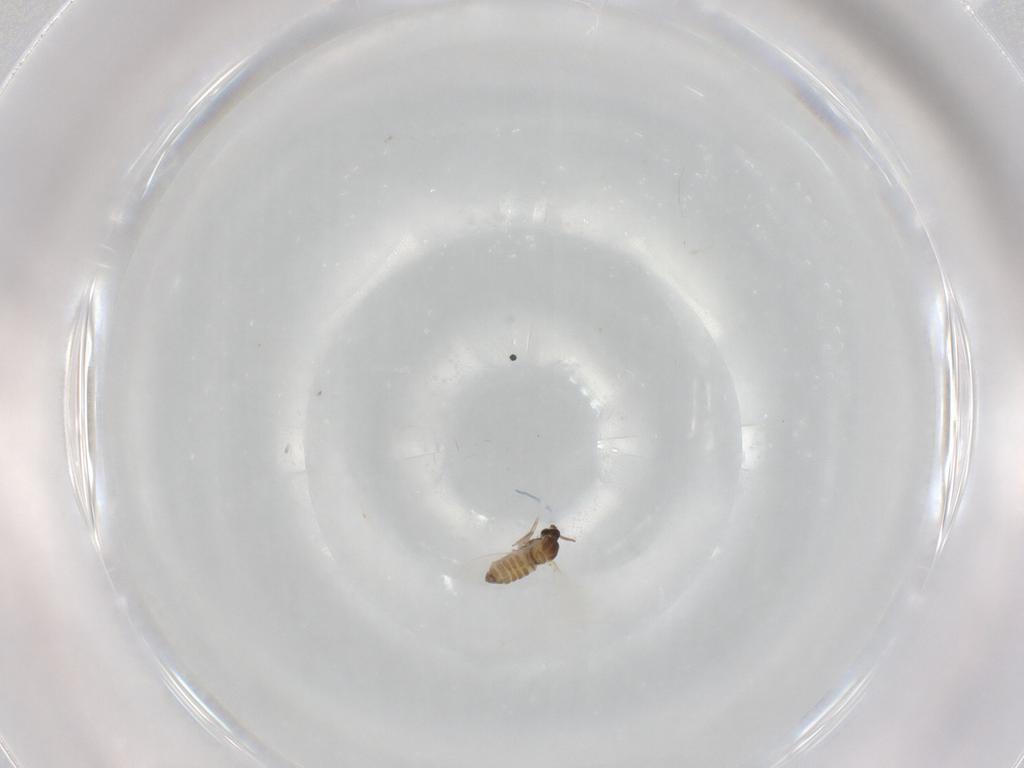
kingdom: Animalia
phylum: Arthropoda
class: Insecta
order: Diptera
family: Cecidomyiidae
